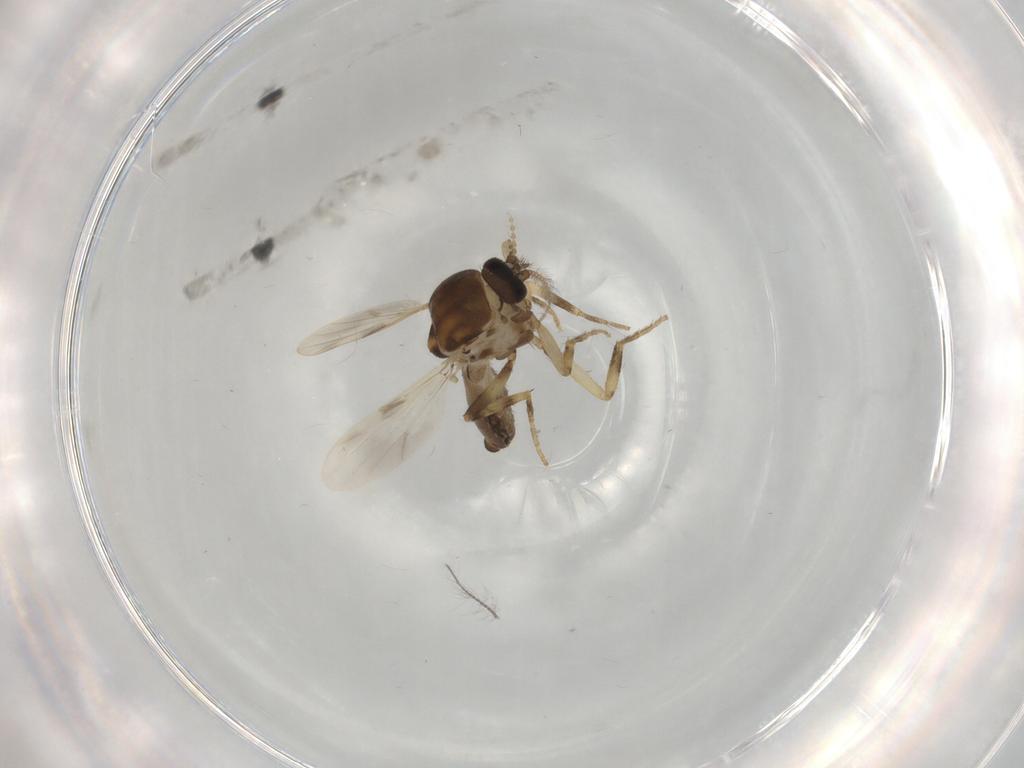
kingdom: Animalia
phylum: Arthropoda
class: Insecta
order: Diptera
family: Ceratopogonidae
